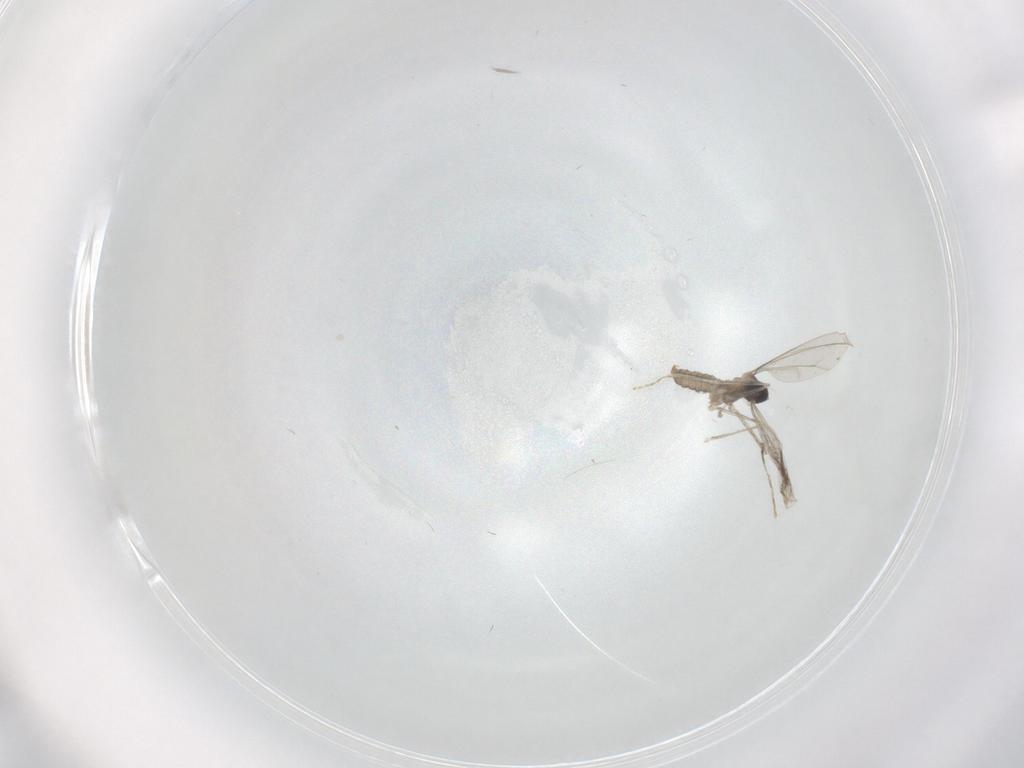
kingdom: Animalia
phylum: Arthropoda
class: Insecta
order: Diptera
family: Cecidomyiidae
